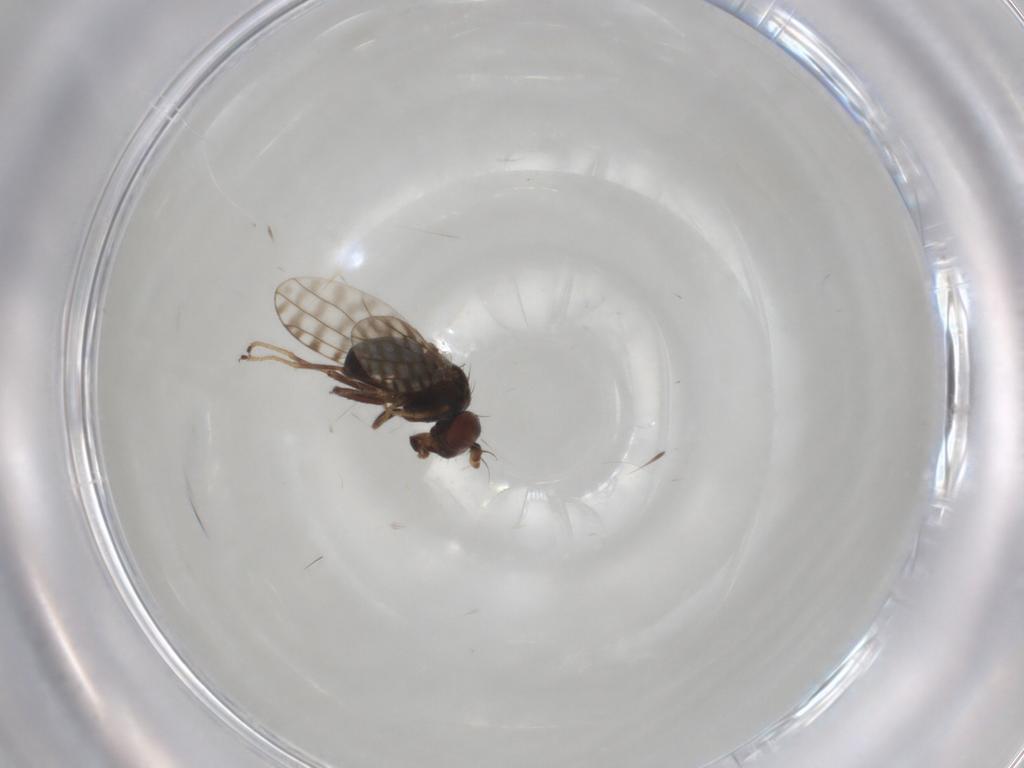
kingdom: Animalia
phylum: Arthropoda
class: Insecta
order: Diptera
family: Ephydridae
